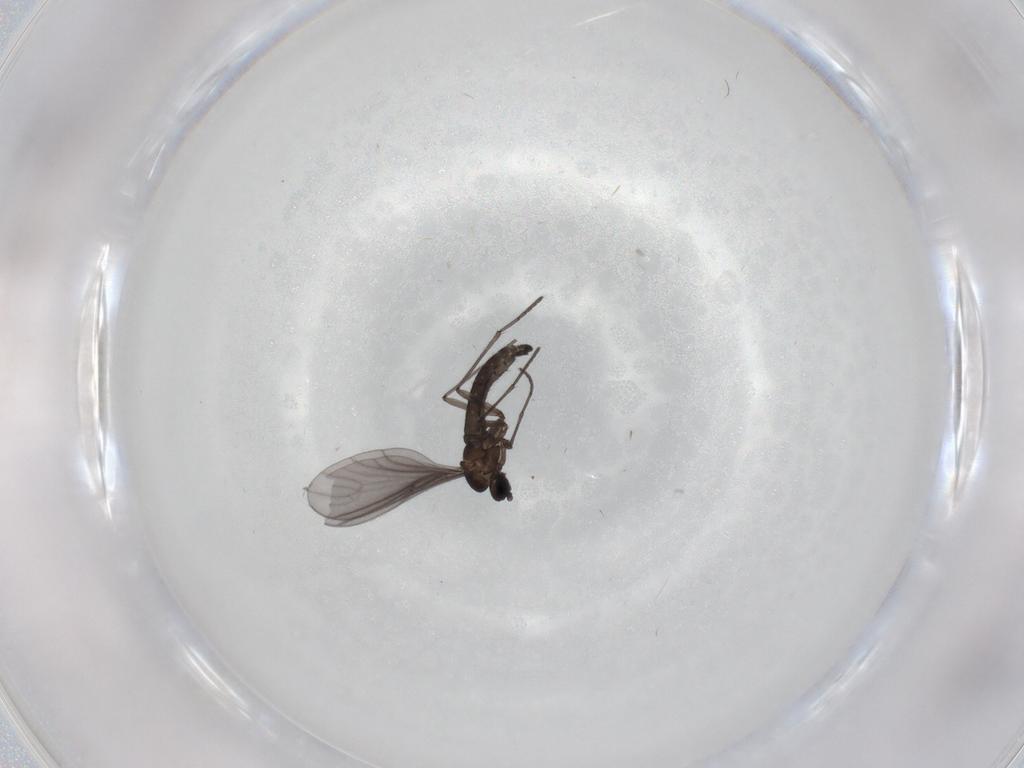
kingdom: Animalia
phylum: Arthropoda
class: Insecta
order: Diptera
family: Sciaridae
